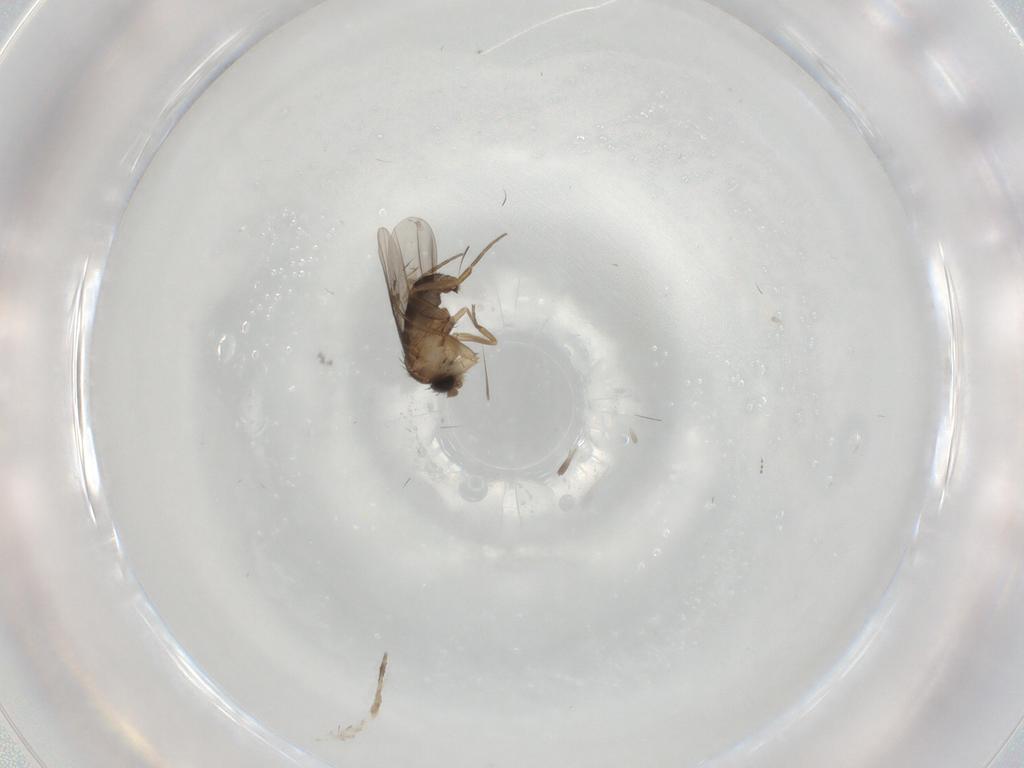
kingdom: Animalia
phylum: Arthropoda
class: Insecta
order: Diptera
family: Cecidomyiidae
